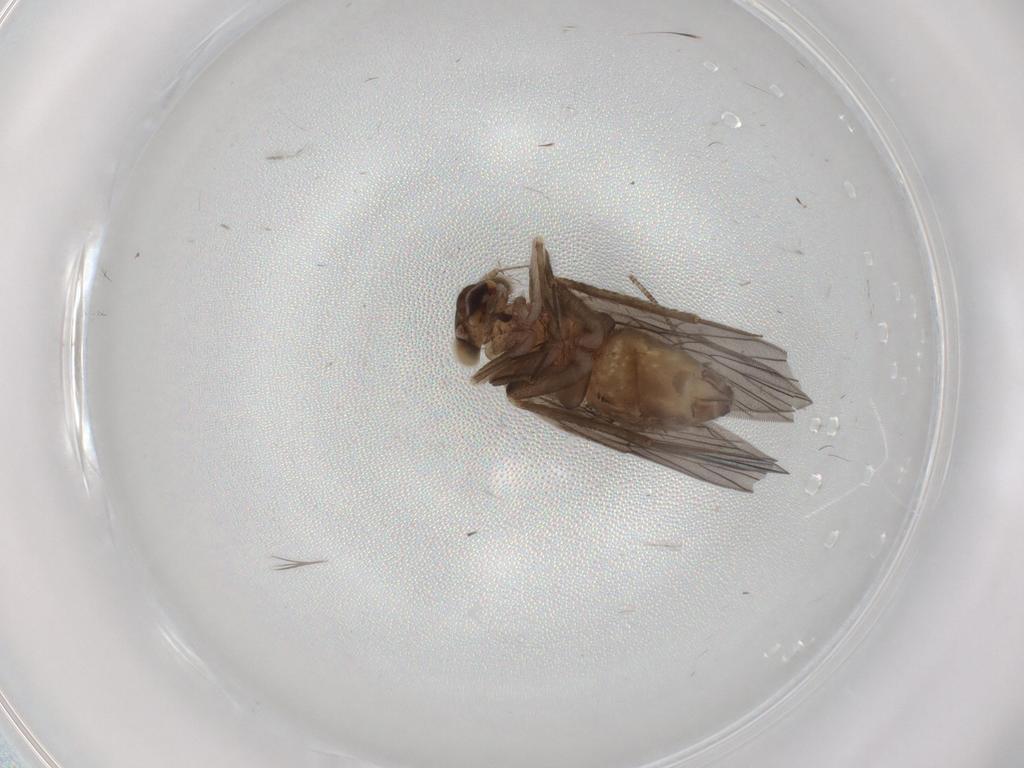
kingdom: Animalia
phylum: Arthropoda
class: Insecta
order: Psocodea
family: Lepidopsocidae
